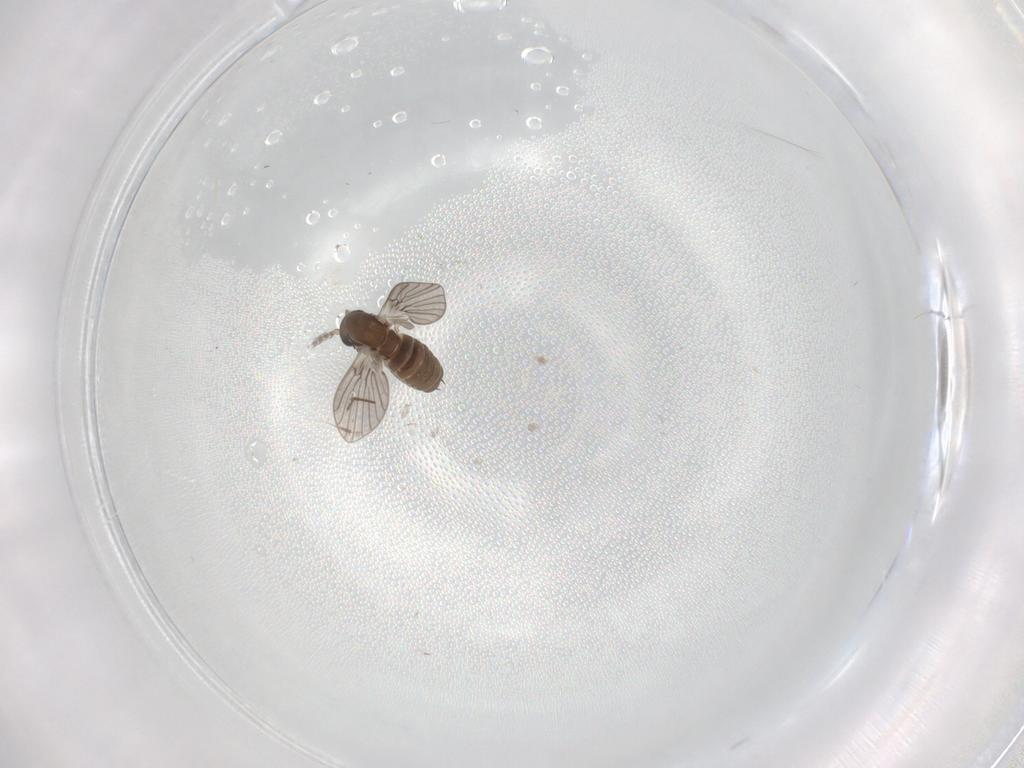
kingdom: Animalia
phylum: Arthropoda
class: Insecta
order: Diptera
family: Cecidomyiidae
